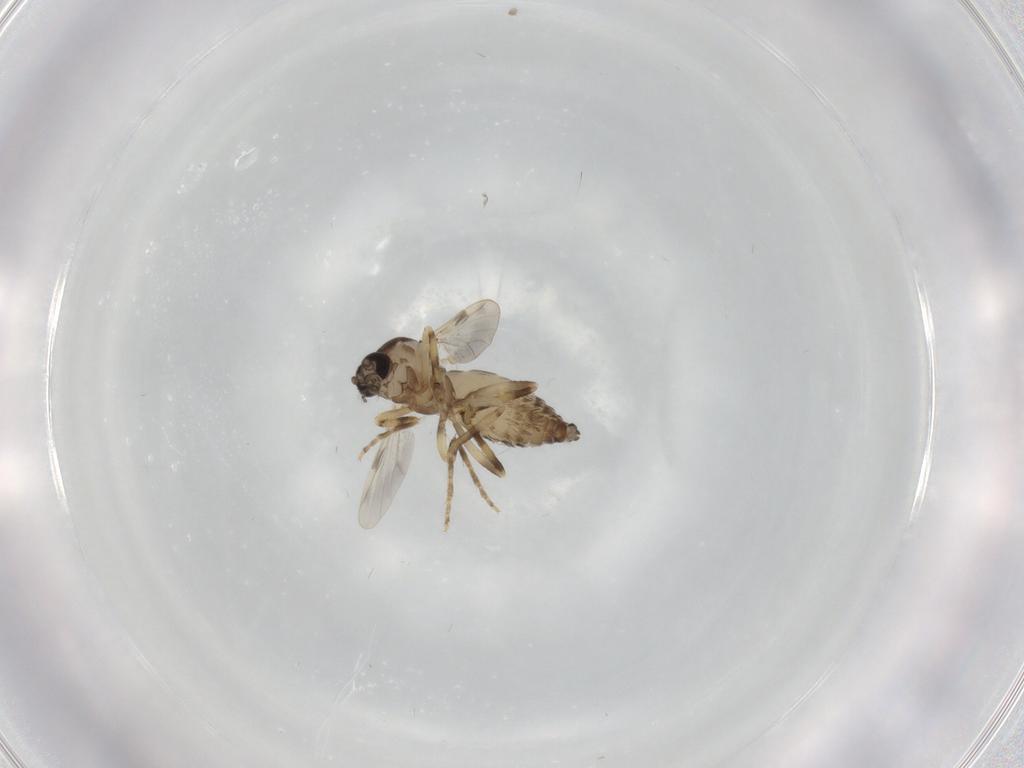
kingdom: Animalia
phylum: Arthropoda
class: Insecta
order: Diptera
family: Ceratopogonidae
